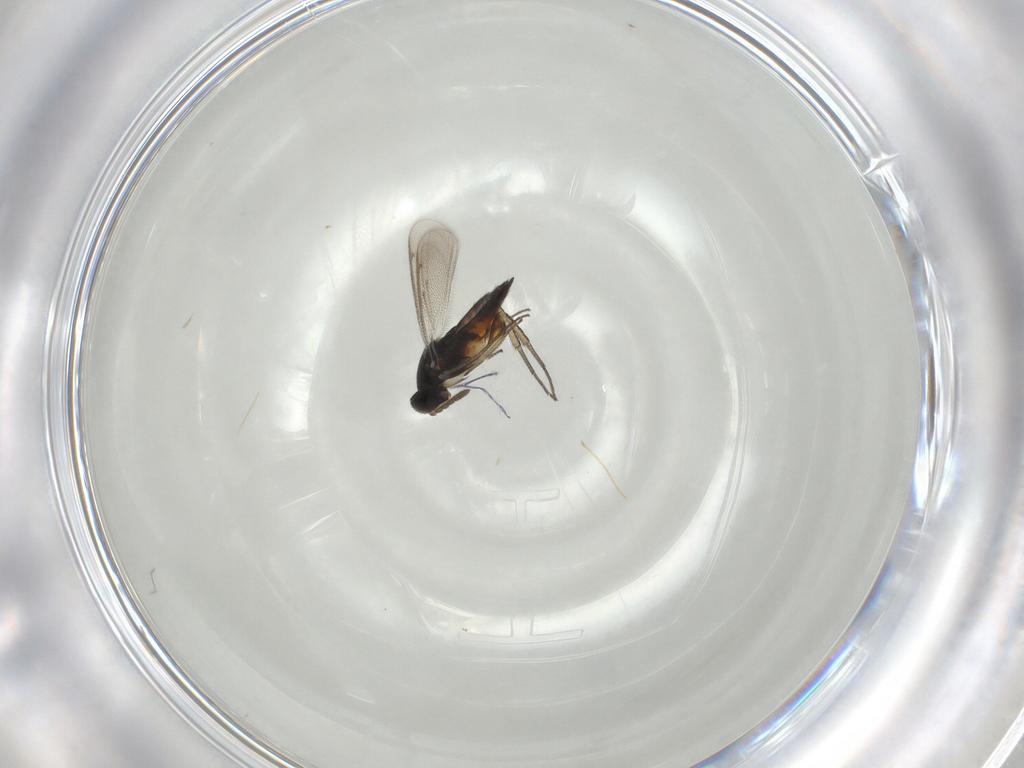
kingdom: Animalia
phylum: Arthropoda
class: Insecta
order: Hymenoptera
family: Eulophidae
